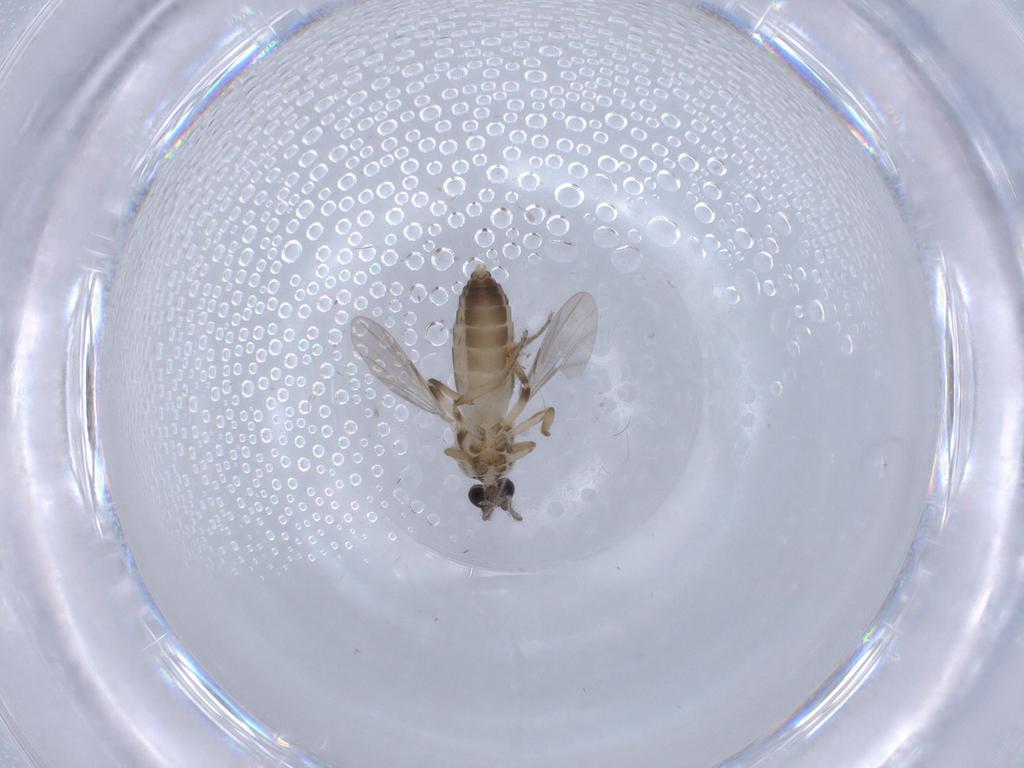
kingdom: Animalia
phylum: Arthropoda
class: Insecta
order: Diptera
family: Ceratopogonidae
